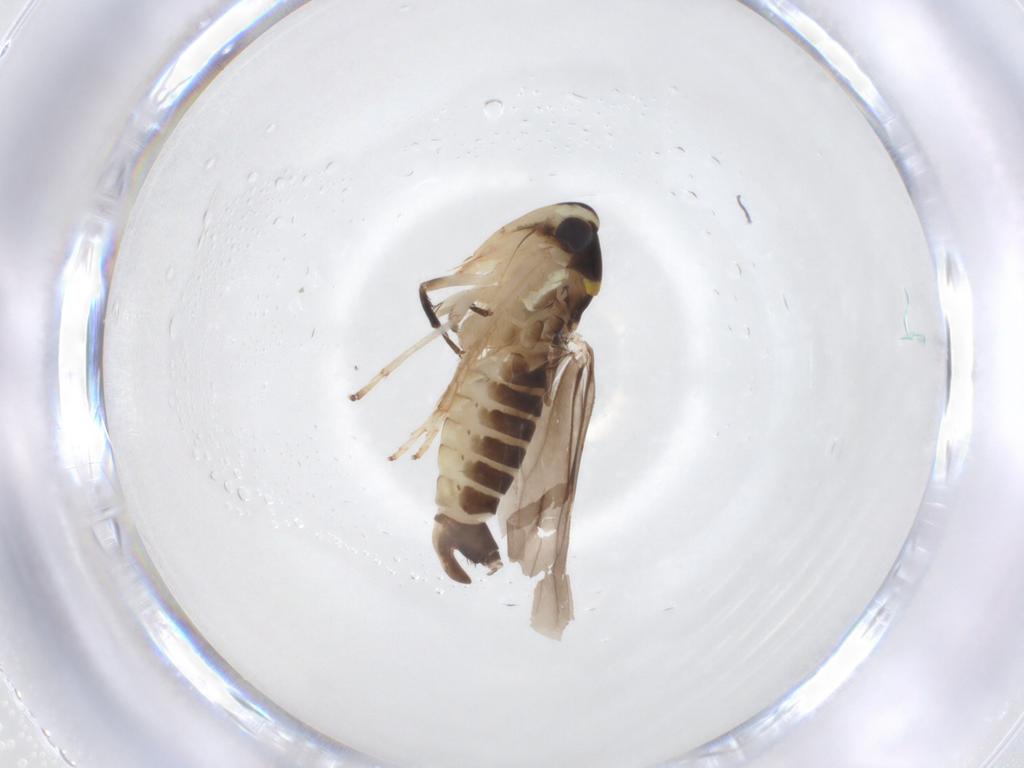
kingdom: Animalia
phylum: Arthropoda
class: Insecta
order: Hemiptera
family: Cicadellidae
